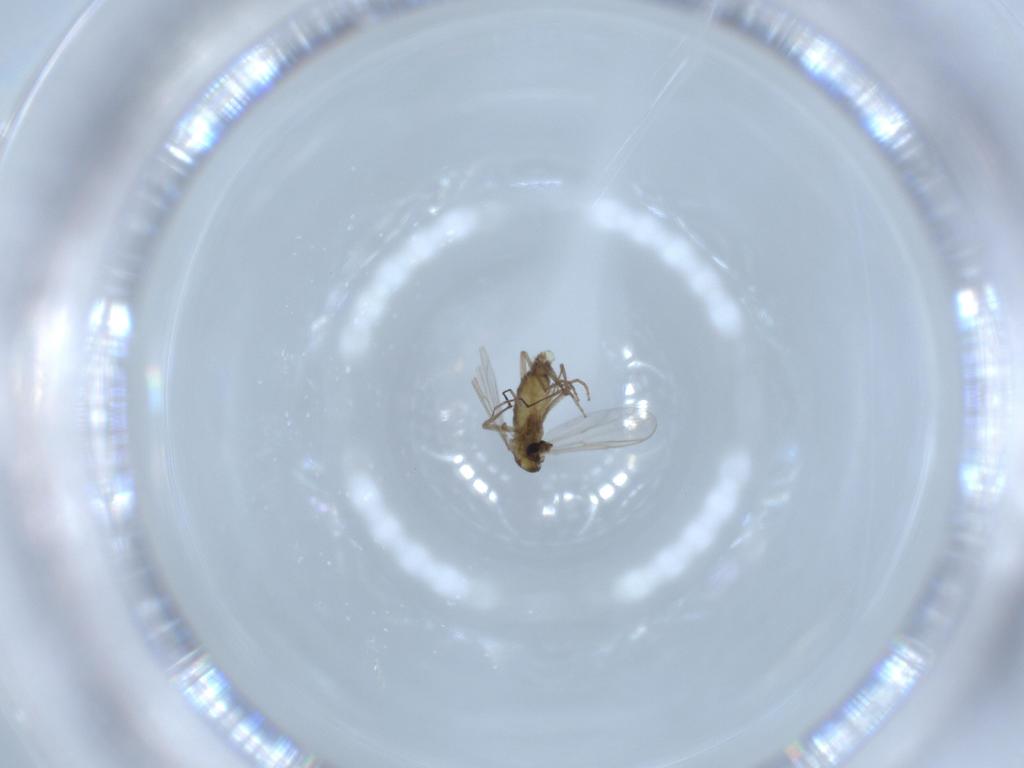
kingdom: Animalia
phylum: Arthropoda
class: Insecta
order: Diptera
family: Chironomidae
